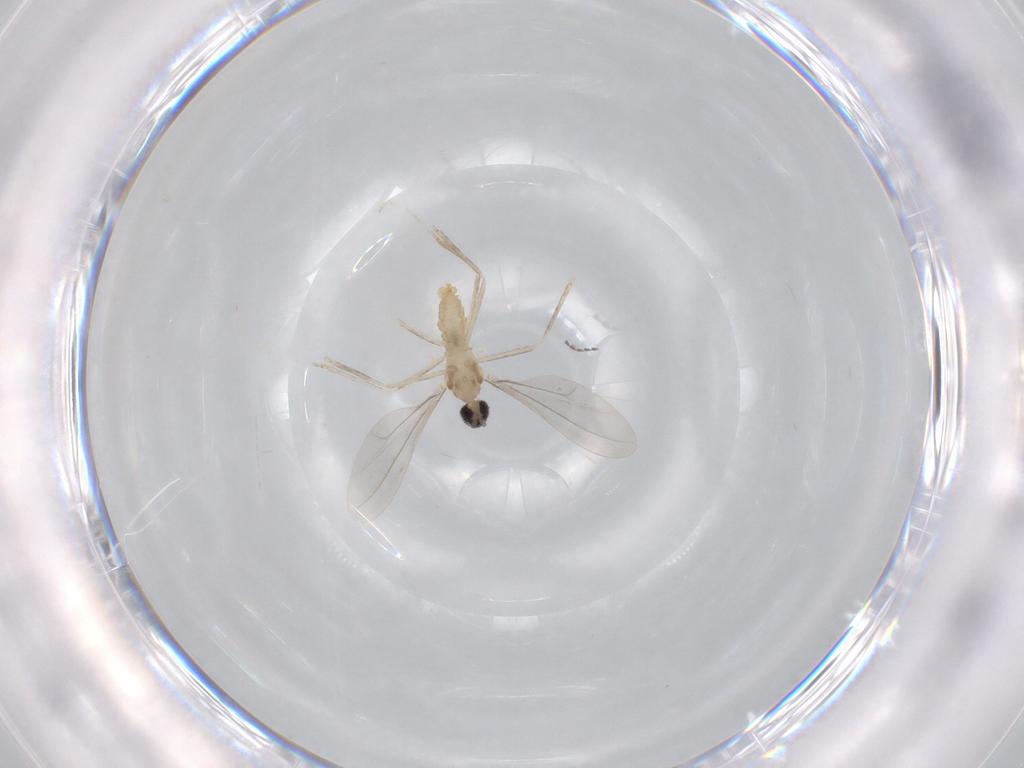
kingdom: Animalia
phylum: Arthropoda
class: Insecta
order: Diptera
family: Cecidomyiidae
